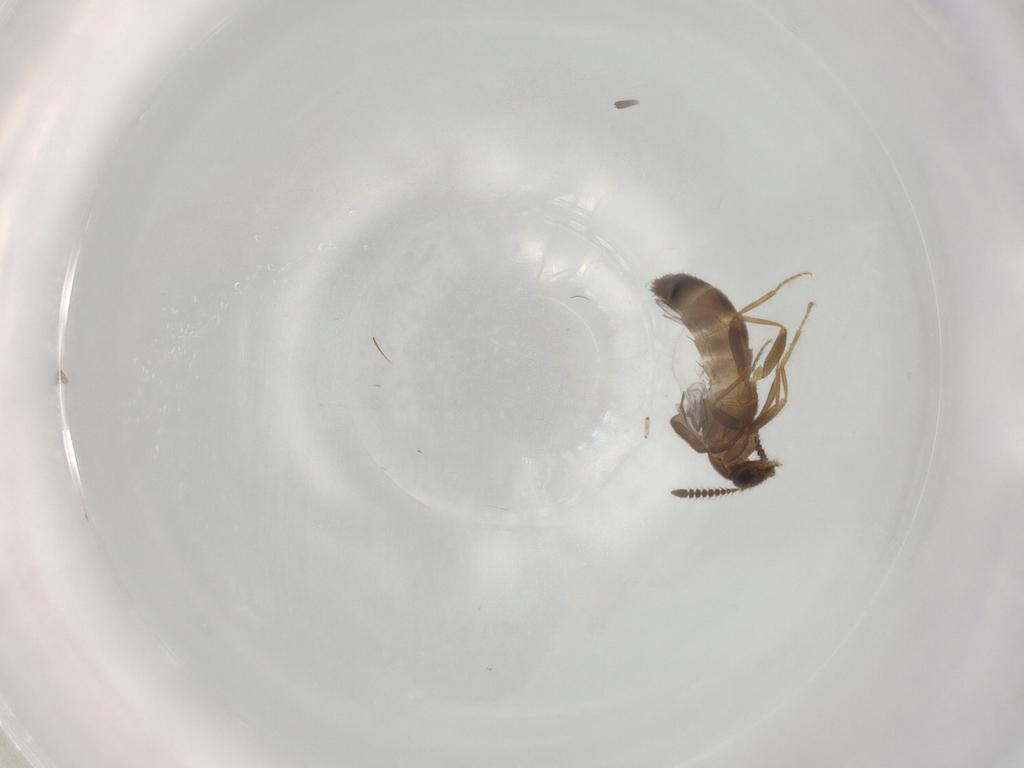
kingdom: Animalia
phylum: Arthropoda
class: Insecta
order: Coleoptera
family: Staphylinidae
